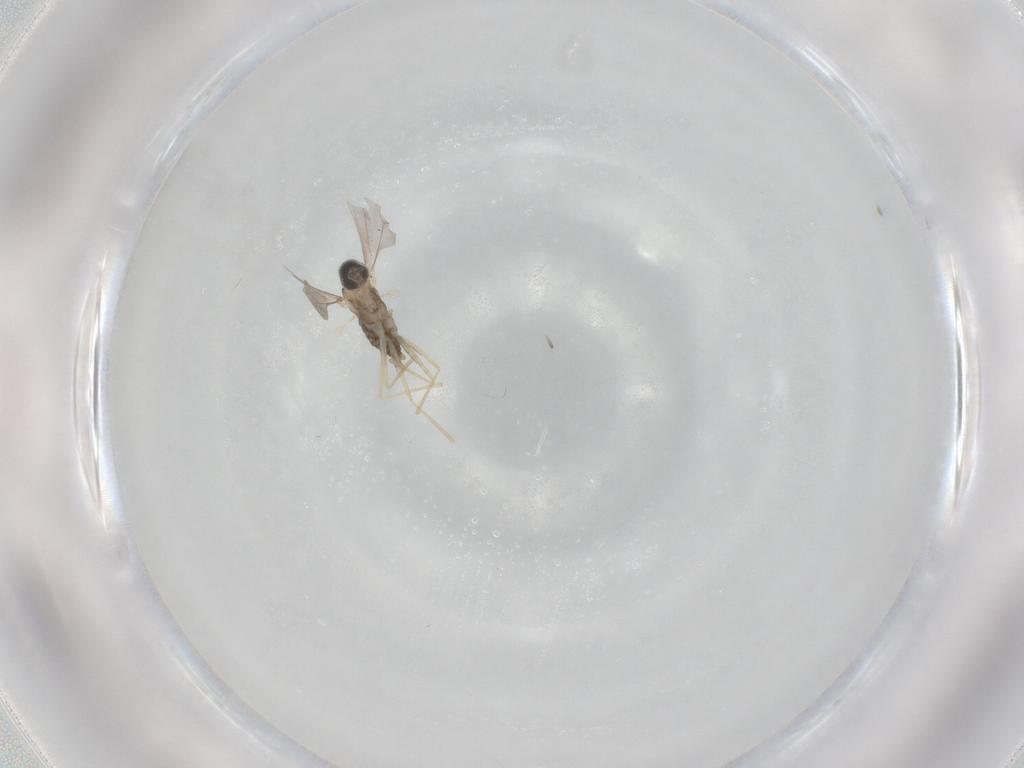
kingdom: Animalia
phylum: Arthropoda
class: Insecta
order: Diptera
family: Cecidomyiidae
